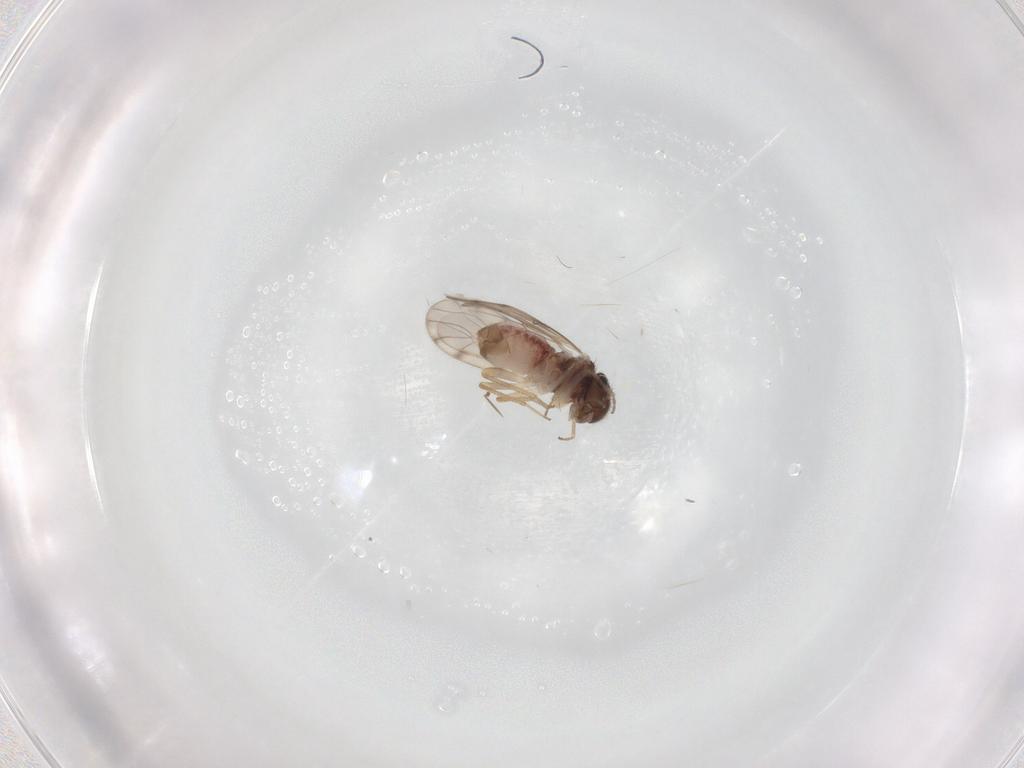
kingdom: Animalia
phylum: Arthropoda
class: Insecta
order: Psocodea
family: Peripsocidae
